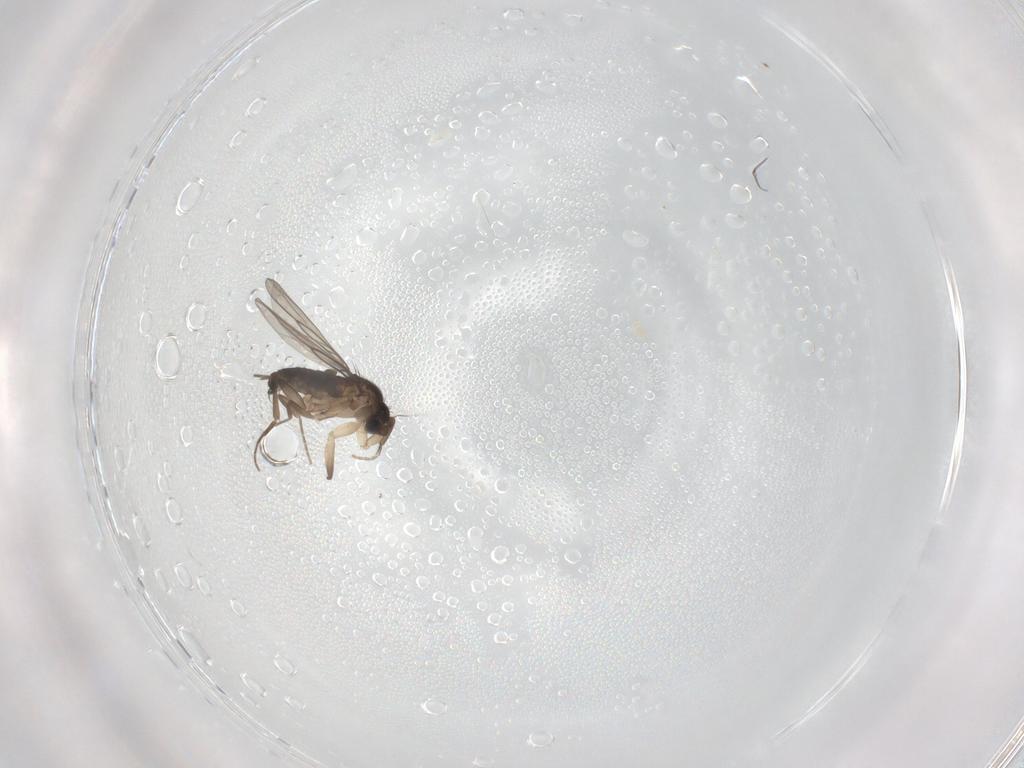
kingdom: Animalia
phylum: Arthropoda
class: Insecta
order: Diptera
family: Phoridae
